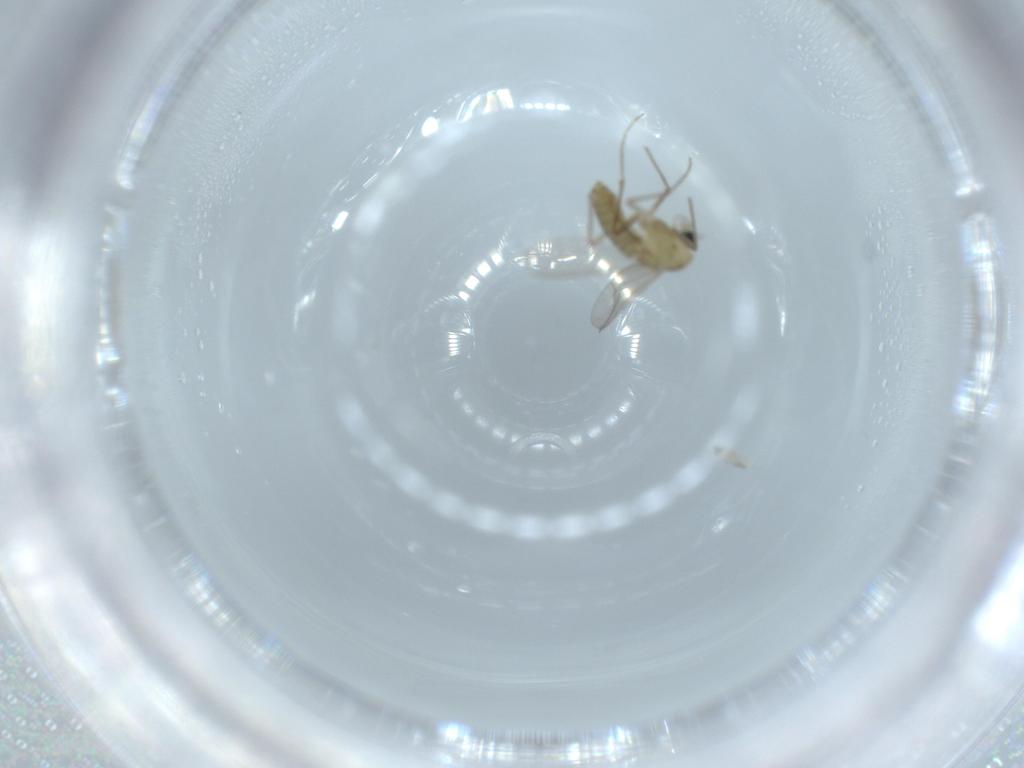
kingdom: Animalia
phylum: Arthropoda
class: Insecta
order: Diptera
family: Chironomidae
